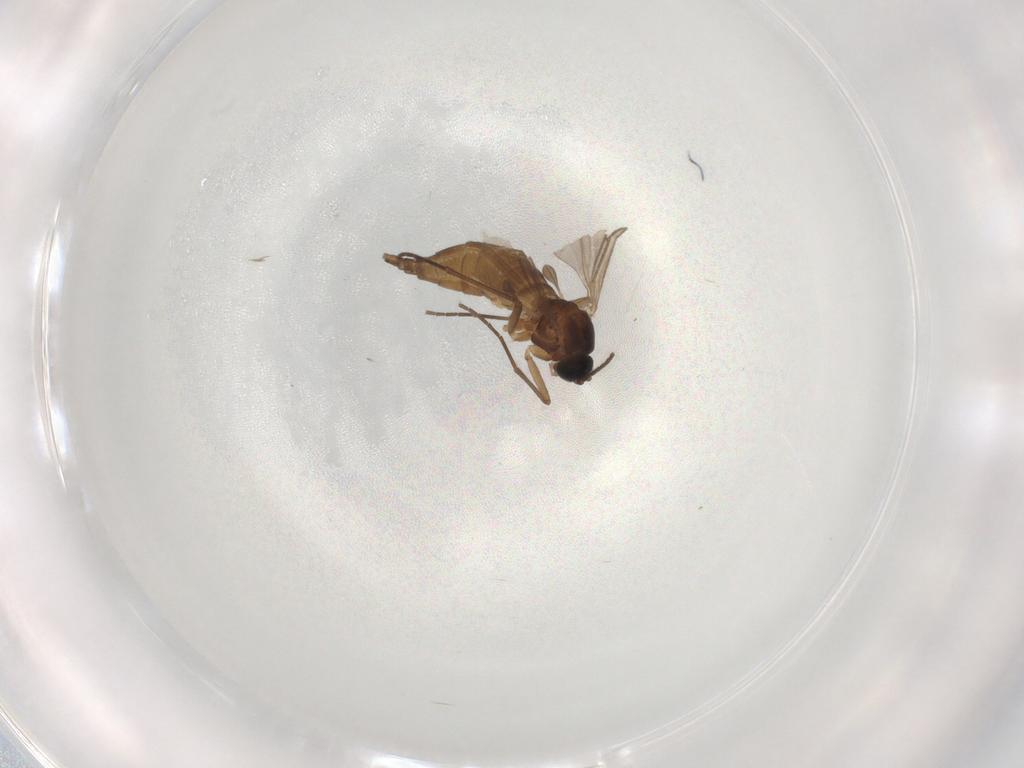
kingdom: Animalia
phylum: Arthropoda
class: Insecta
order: Diptera
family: Sciaridae
